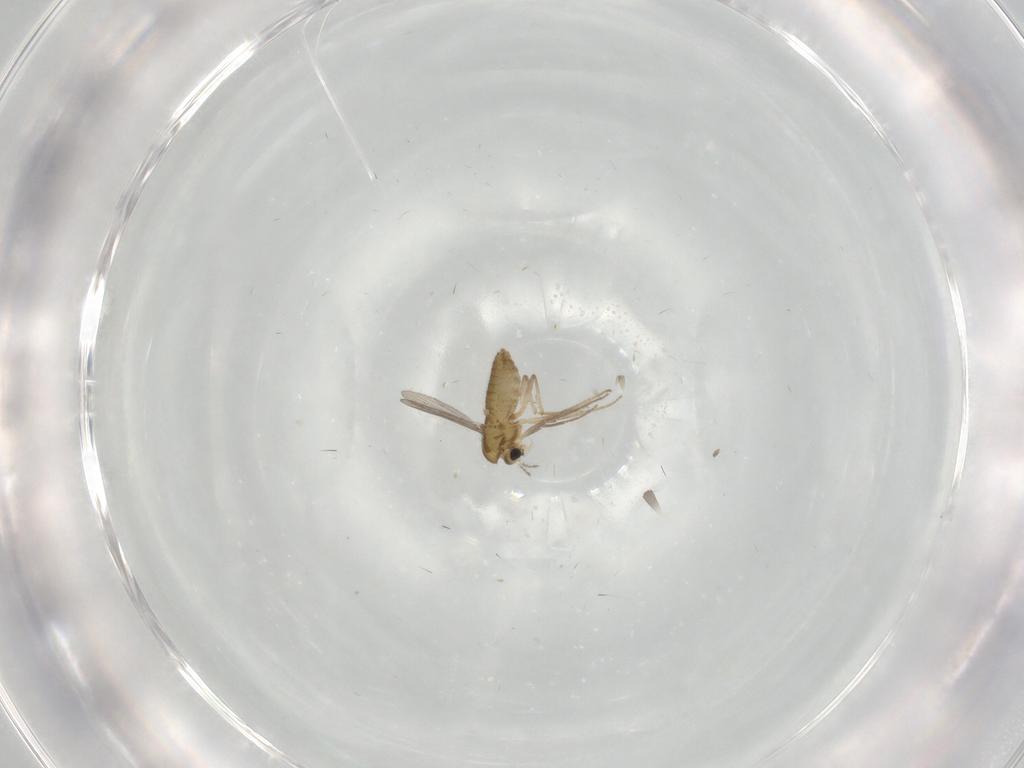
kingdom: Animalia
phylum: Arthropoda
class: Insecta
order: Diptera
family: Chironomidae
